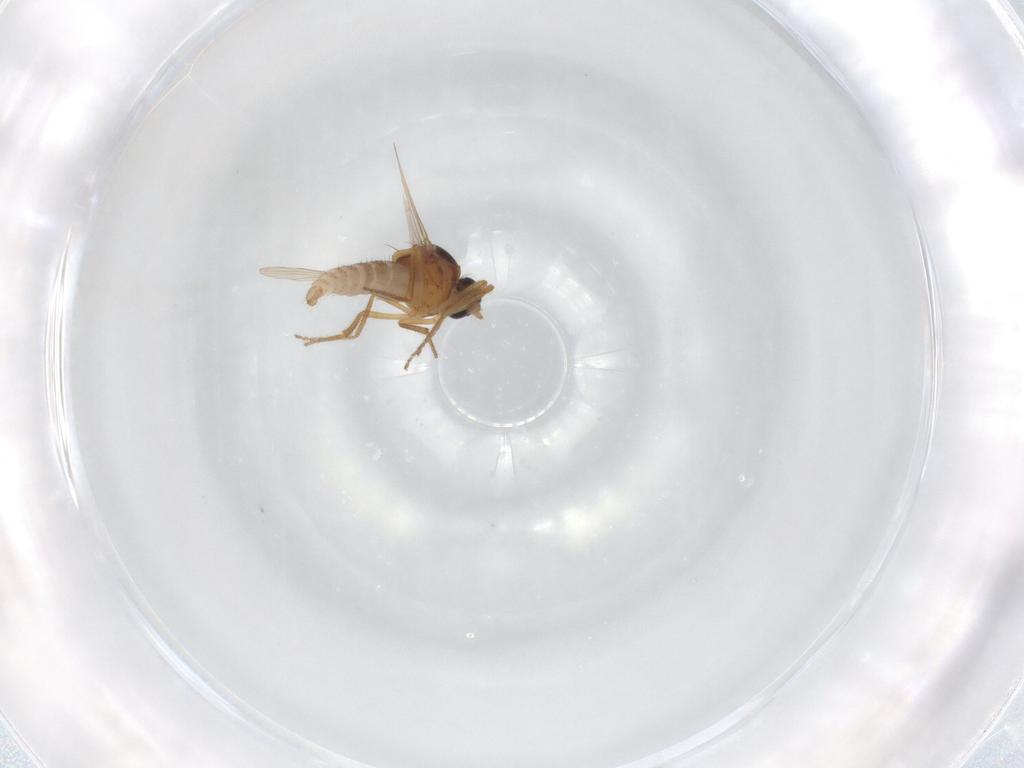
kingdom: Animalia
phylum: Arthropoda
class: Insecta
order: Diptera
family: Ceratopogonidae
